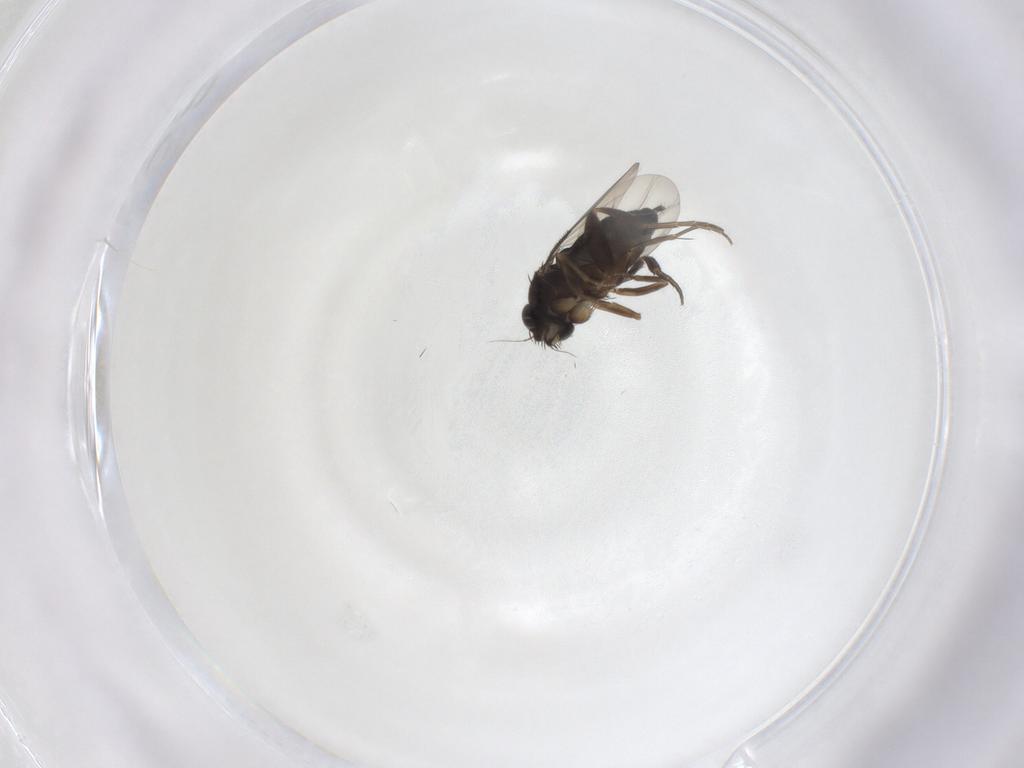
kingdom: Animalia
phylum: Arthropoda
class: Insecta
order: Diptera
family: Phoridae
